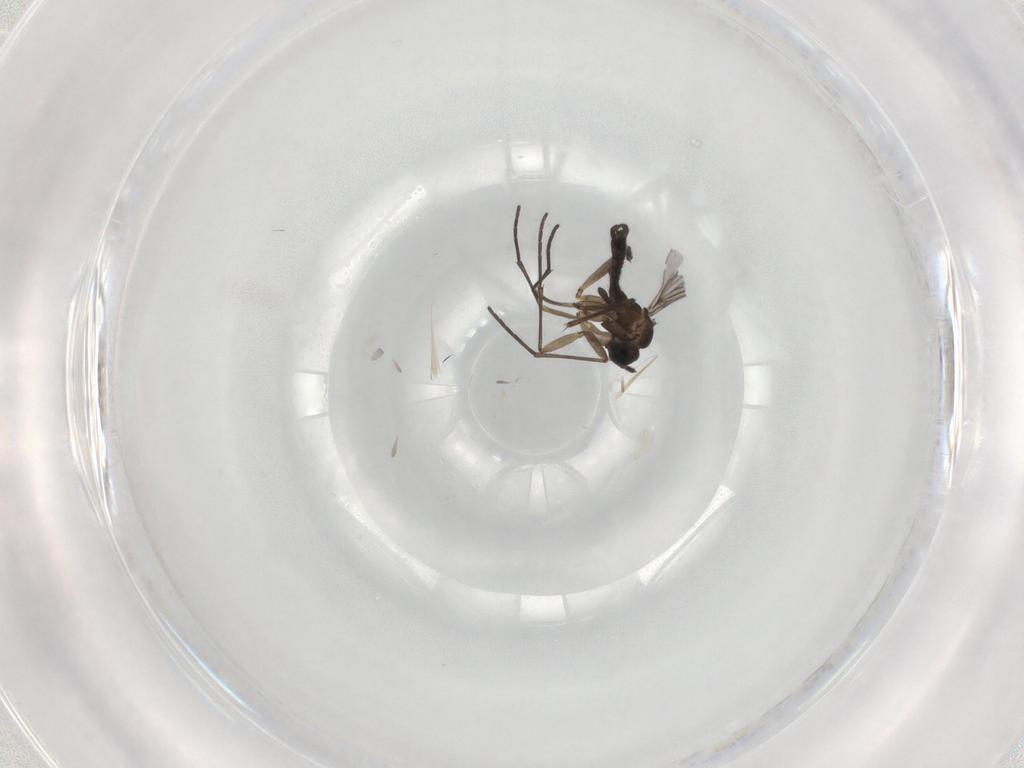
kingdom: Animalia
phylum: Arthropoda
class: Insecta
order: Diptera
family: Sciaridae
